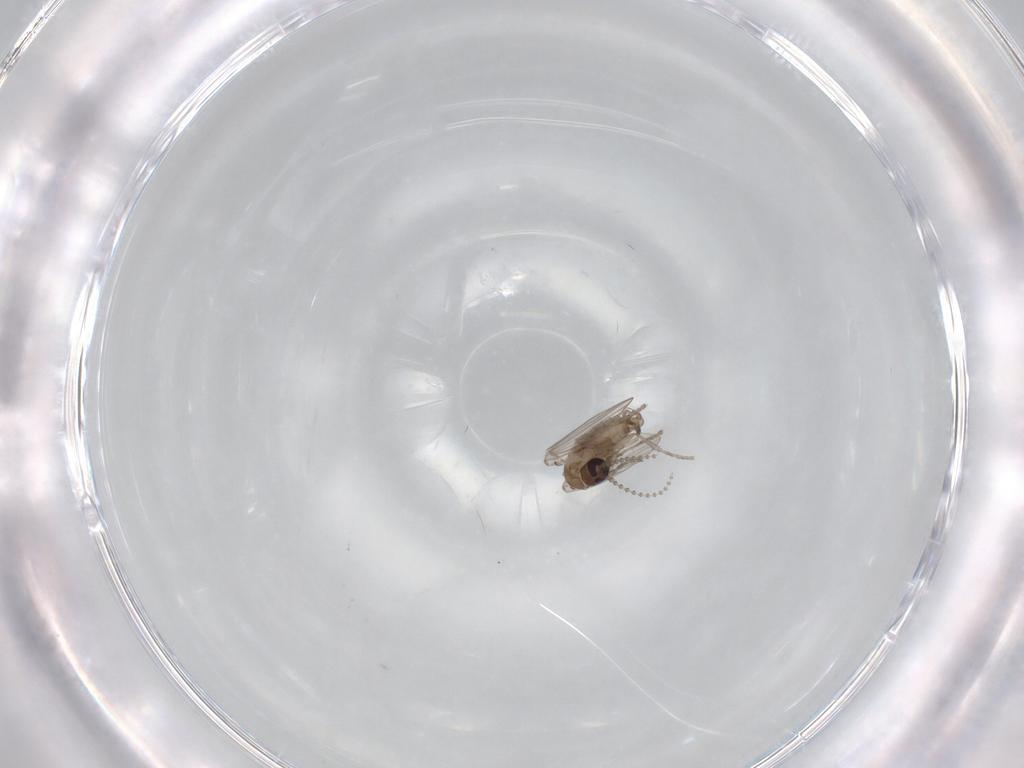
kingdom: Animalia
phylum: Arthropoda
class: Insecta
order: Diptera
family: Psychodidae
